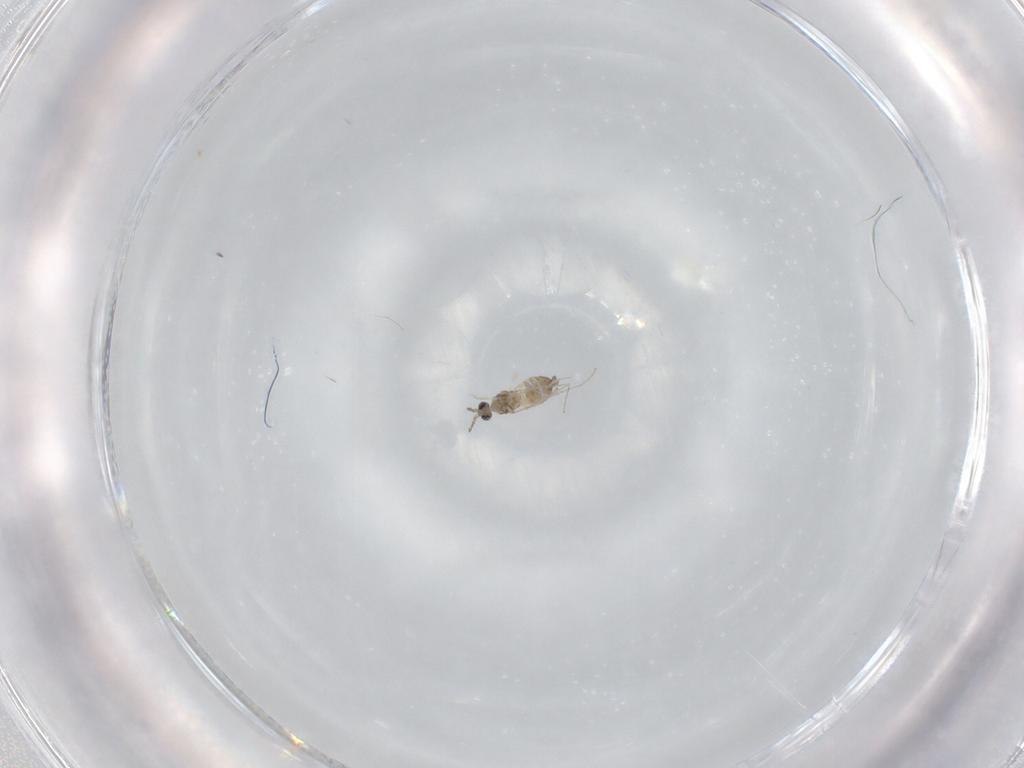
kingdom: Animalia
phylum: Arthropoda
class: Insecta
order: Diptera
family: Cecidomyiidae
